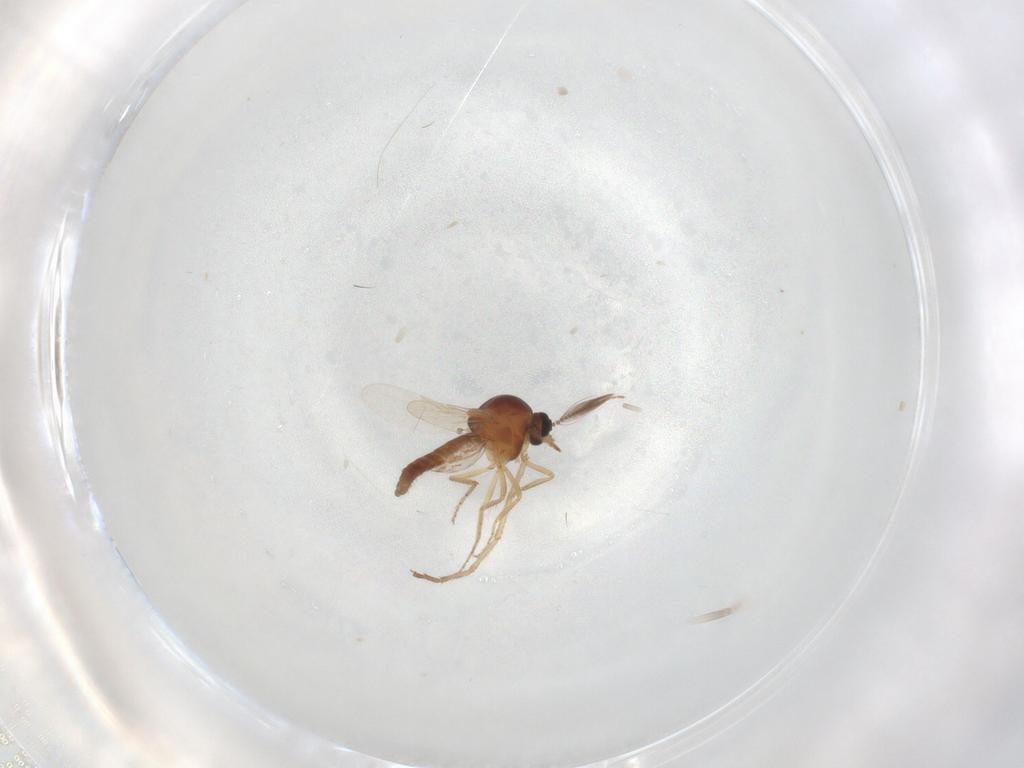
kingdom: Animalia
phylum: Arthropoda
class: Insecta
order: Diptera
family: Ceratopogonidae
